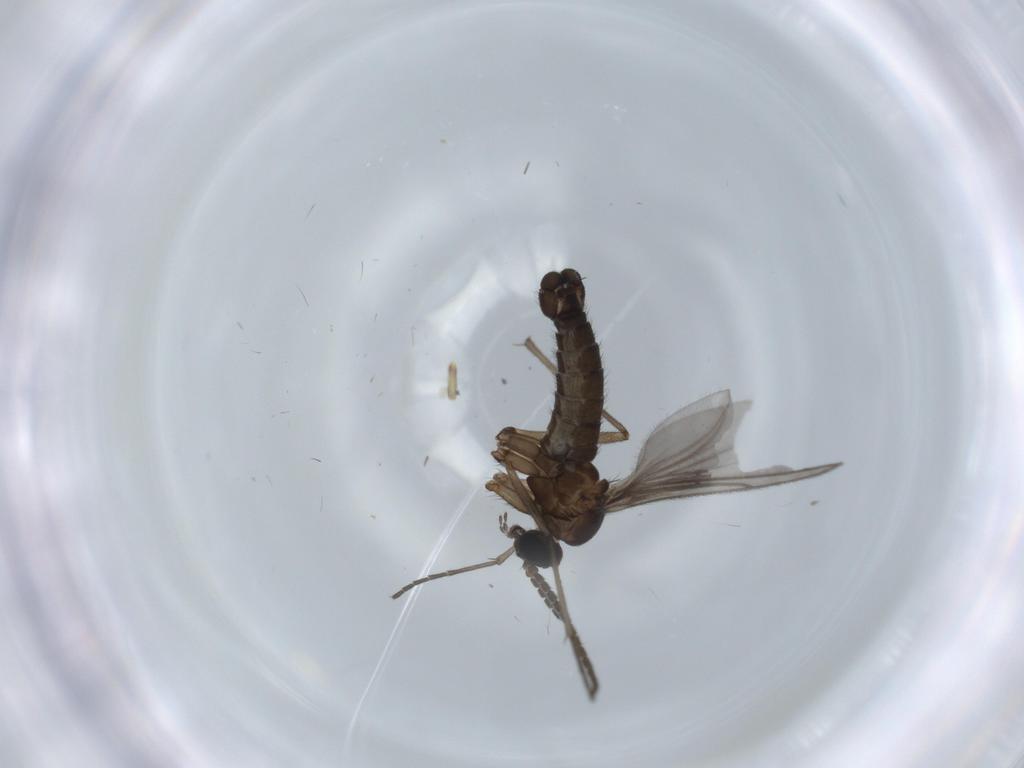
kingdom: Animalia
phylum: Arthropoda
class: Insecta
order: Diptera
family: Sciaridae
